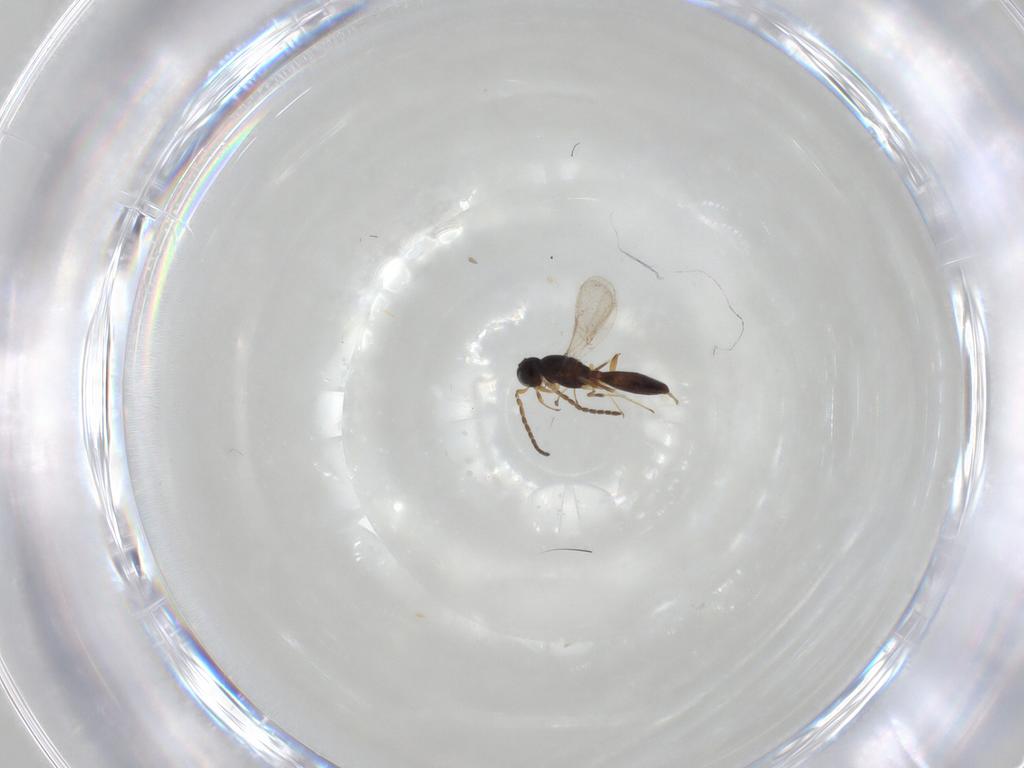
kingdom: Animalia
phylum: Arthropoda
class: Insecta
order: Hymenoptera
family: Scelionidae
